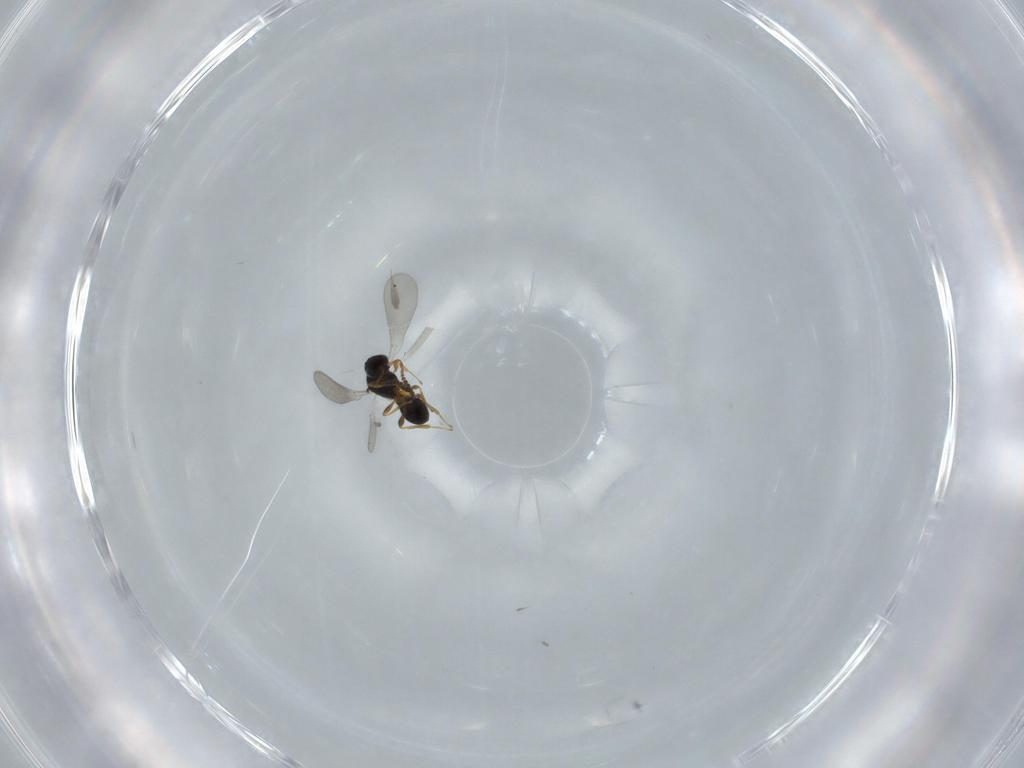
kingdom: Animalia
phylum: Arthropoda
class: Insecta
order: Hymenoptera
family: Platygastridae
